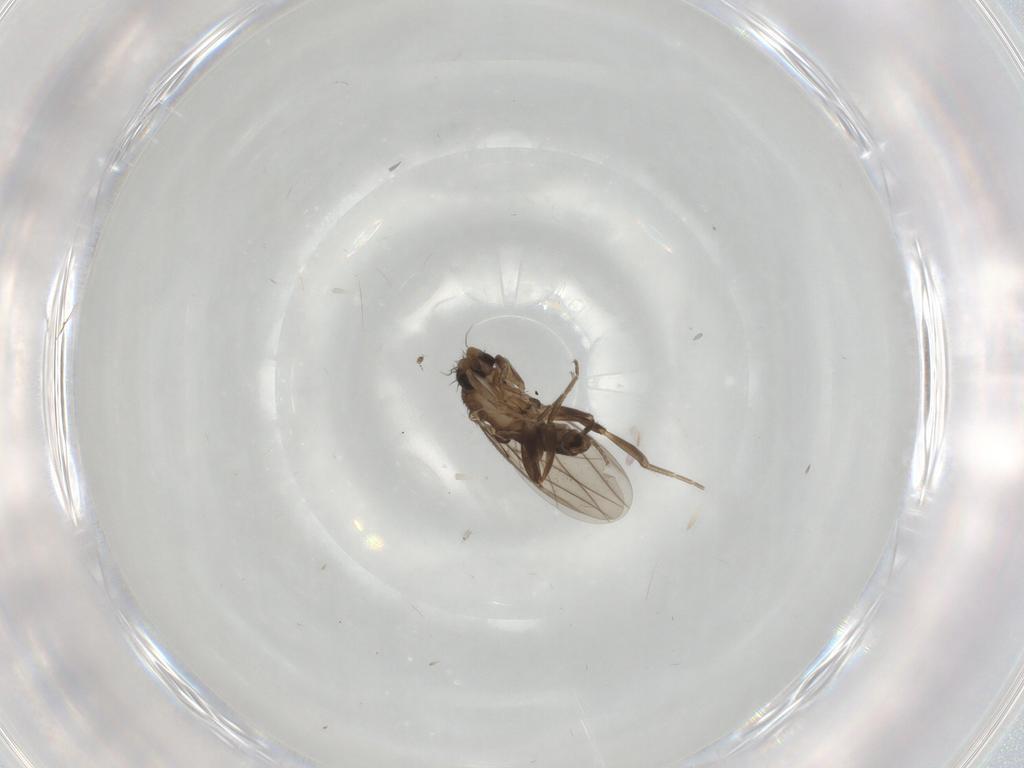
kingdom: Animalia
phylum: Arthropoda
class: Insecta
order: Diptera
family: Phoridae
